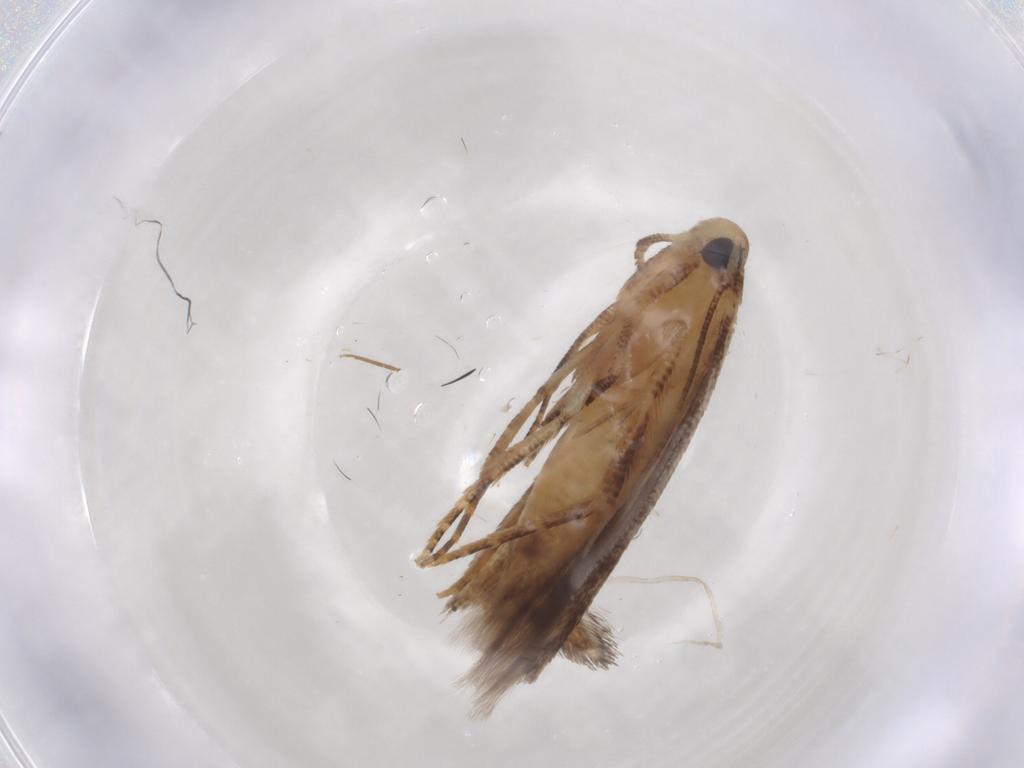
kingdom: Animalia
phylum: Arthropoda
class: Insecta
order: Lepidoptera
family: Cosmopterigidae
